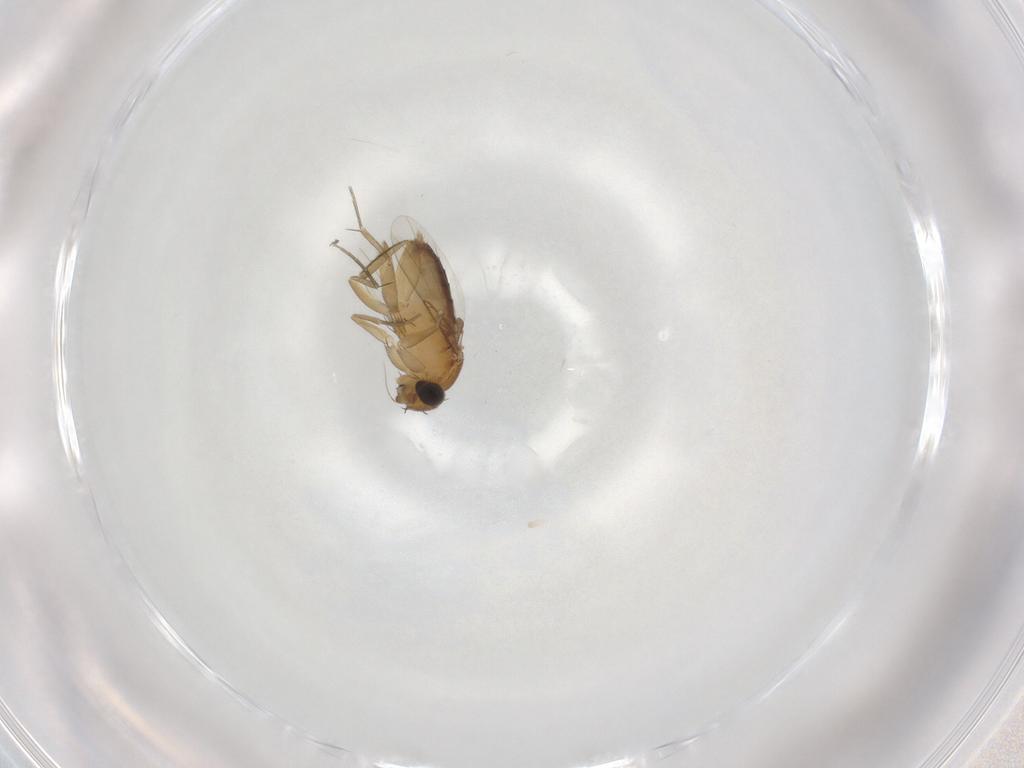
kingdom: Animalia
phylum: Arthropoda
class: Insecta
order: Diptera
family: Phoridae
